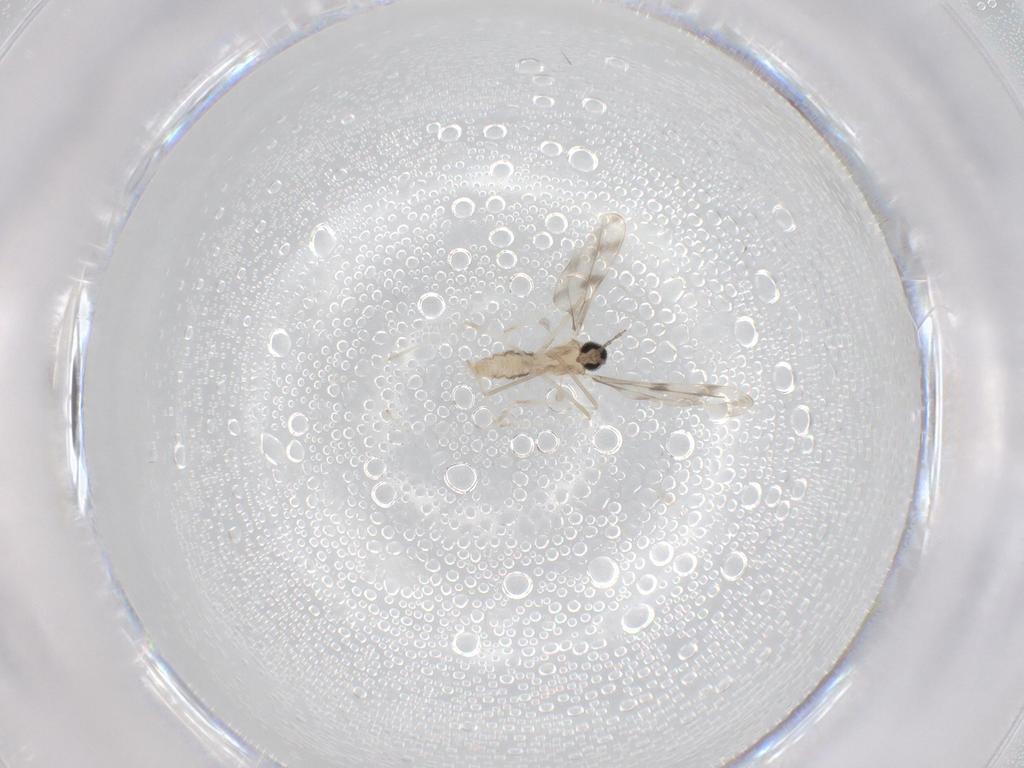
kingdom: Animalia
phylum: Arthropoda
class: Insecta
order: Diptera
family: Cecidomyiidae
